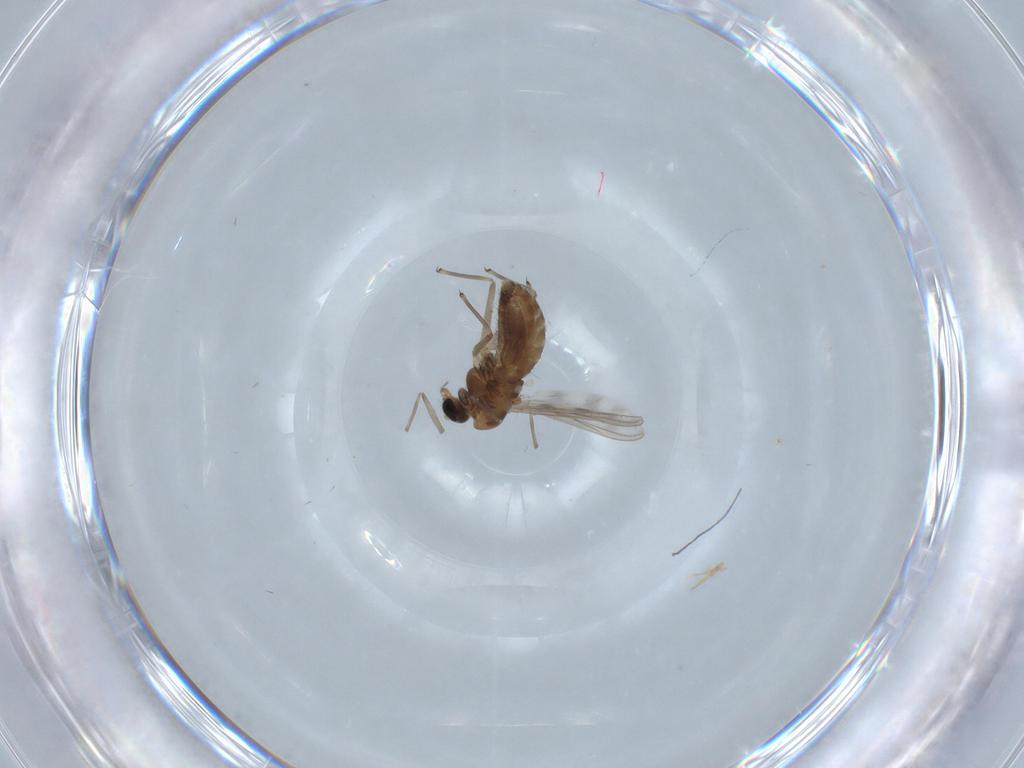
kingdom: Animalia
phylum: Arthropoda
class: Insecta
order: Diptera
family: Chironomidae
